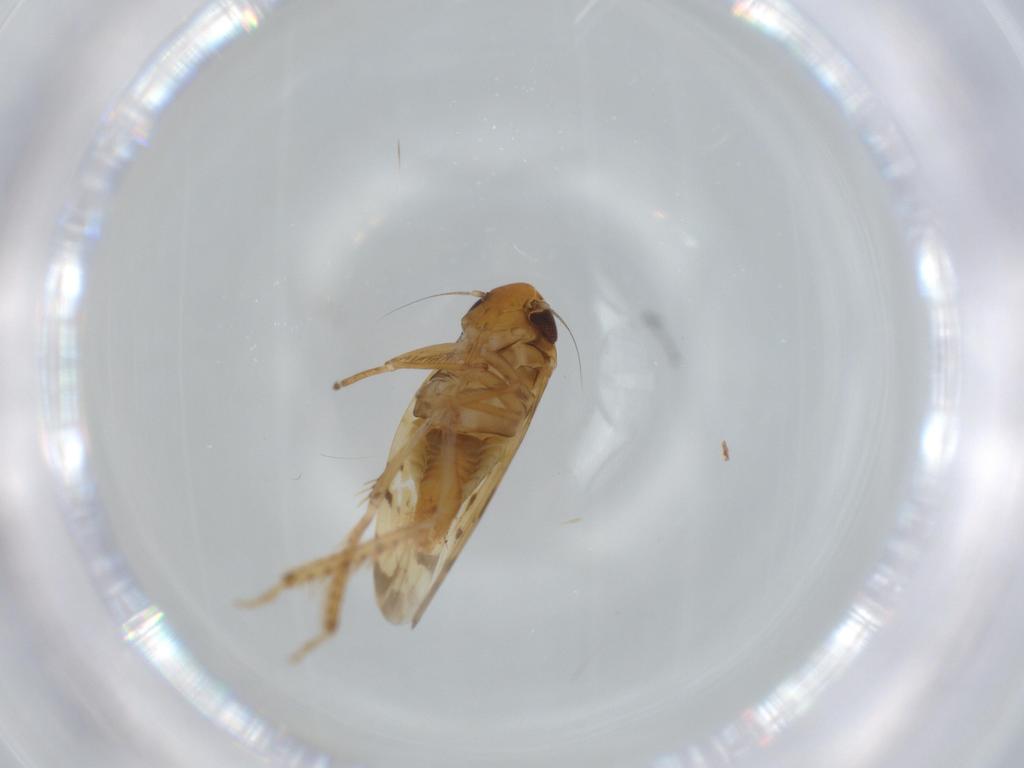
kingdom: Animalia
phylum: Arthropoda
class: Insecta
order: Hemiptera
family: Cicadellidae
